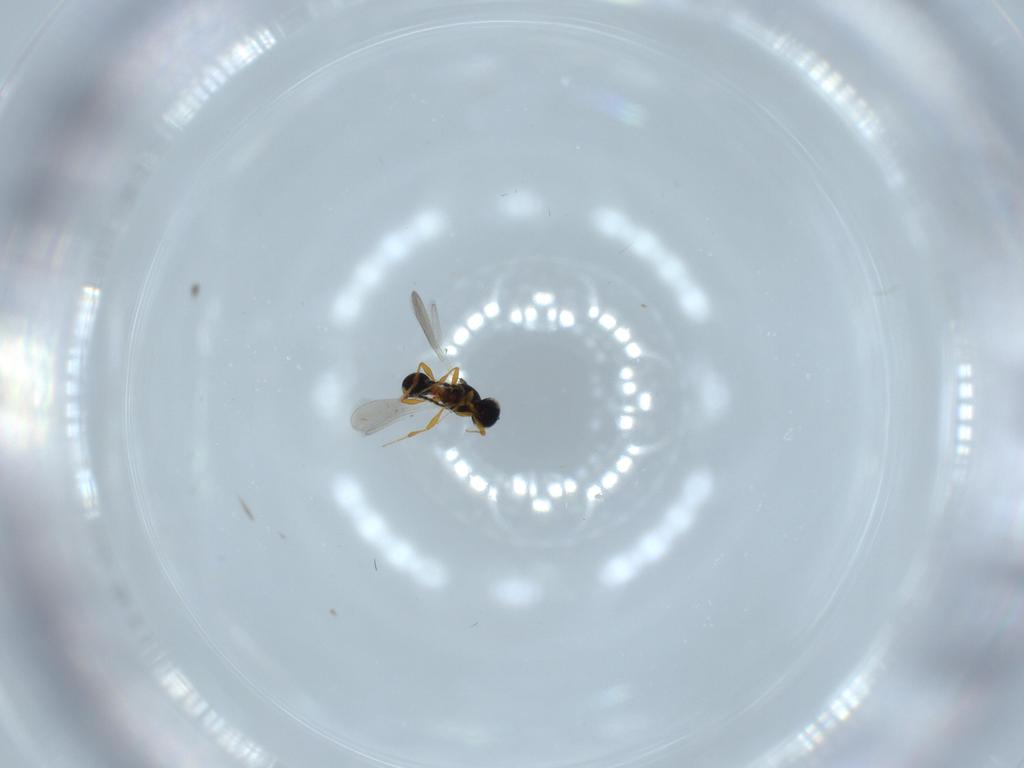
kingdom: Animalia
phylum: Arthropoda
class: Insecta
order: Hymenoptera
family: Platygastridae
